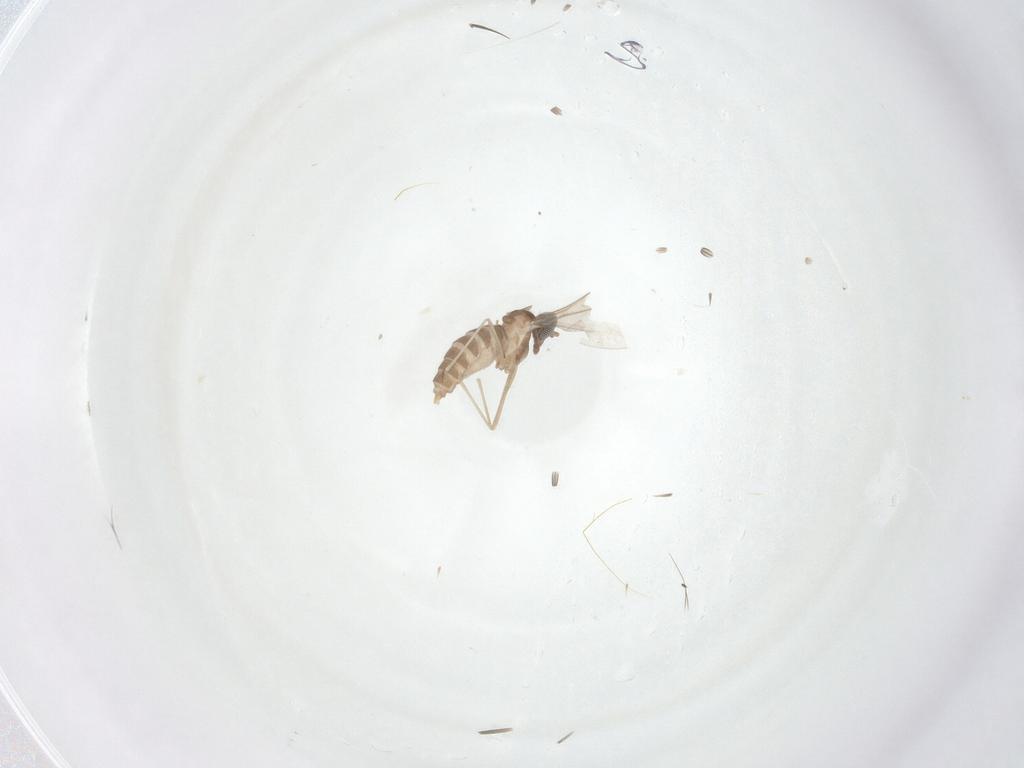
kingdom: Animalia
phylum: Arthropoda
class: Insecta
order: Diptera
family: Cecidomyiidae
